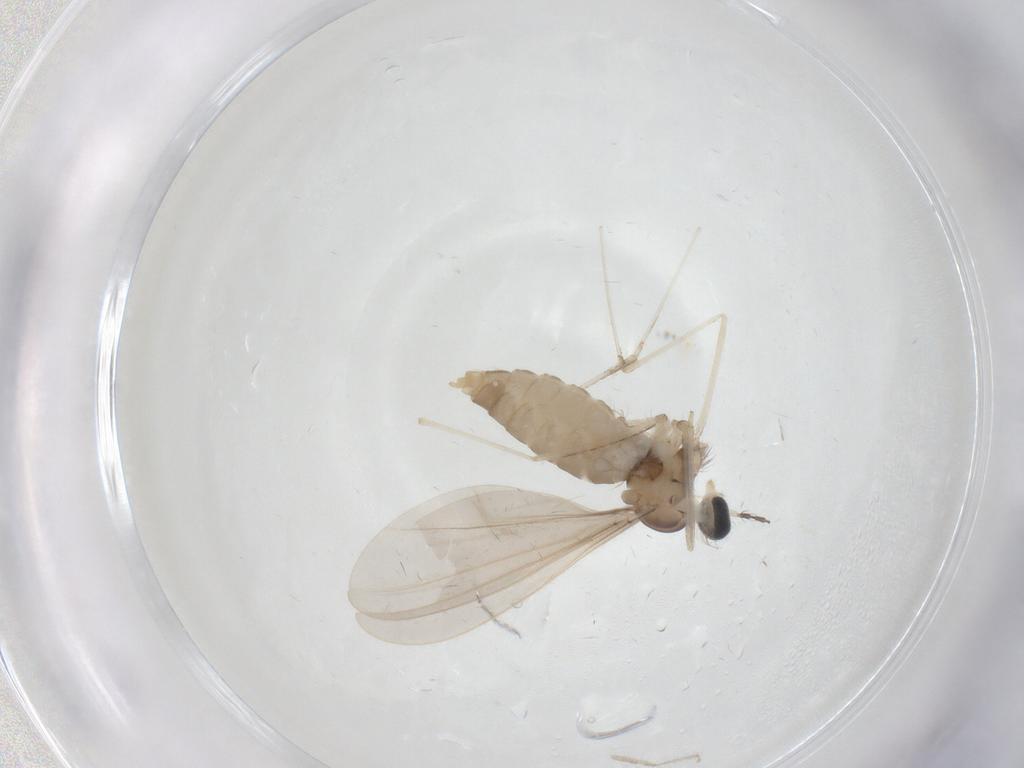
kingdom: Animalia
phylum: Arthropoda
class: Insecta
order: Diptera
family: Cecidomyiidae
